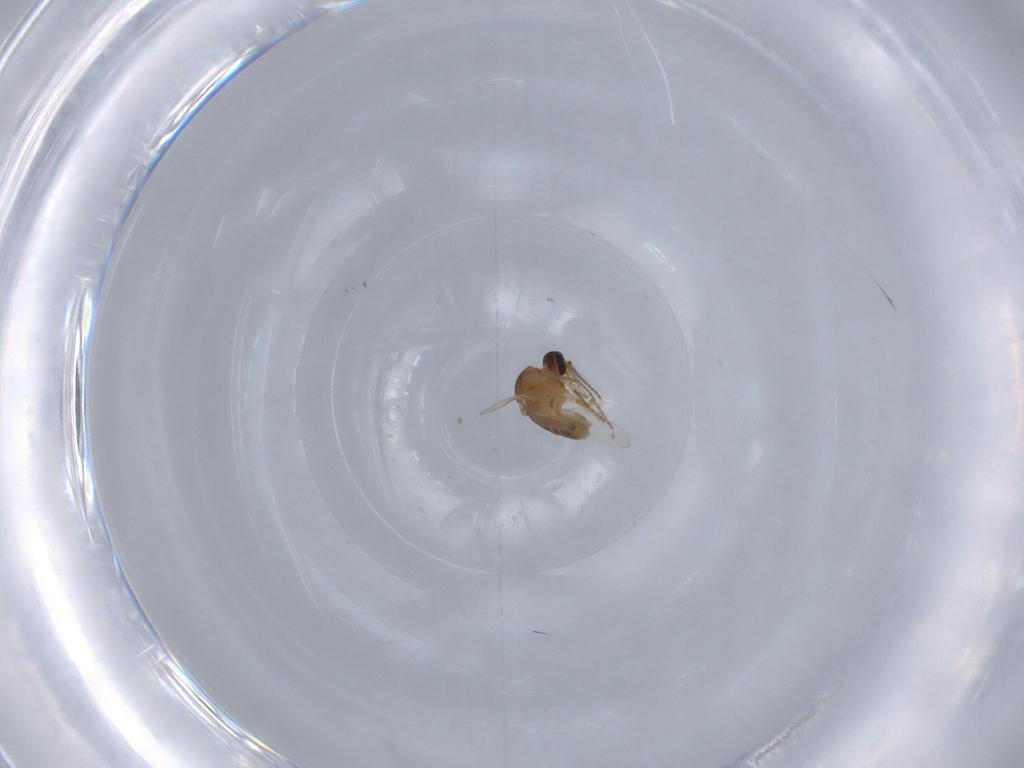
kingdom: Animalia
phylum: Arthropoda
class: Insecta
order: Diptera
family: Ceratopogonidae
